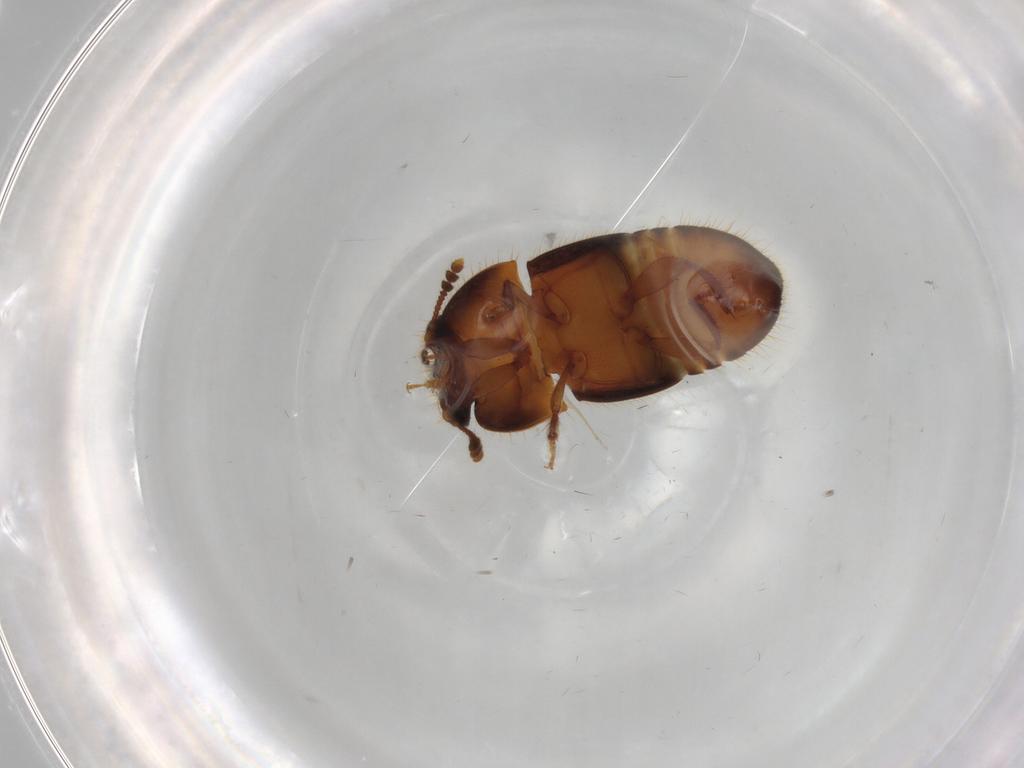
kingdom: Animalia
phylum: Arthropoda
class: Insecta
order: Coleoptera
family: Nitidulidae
